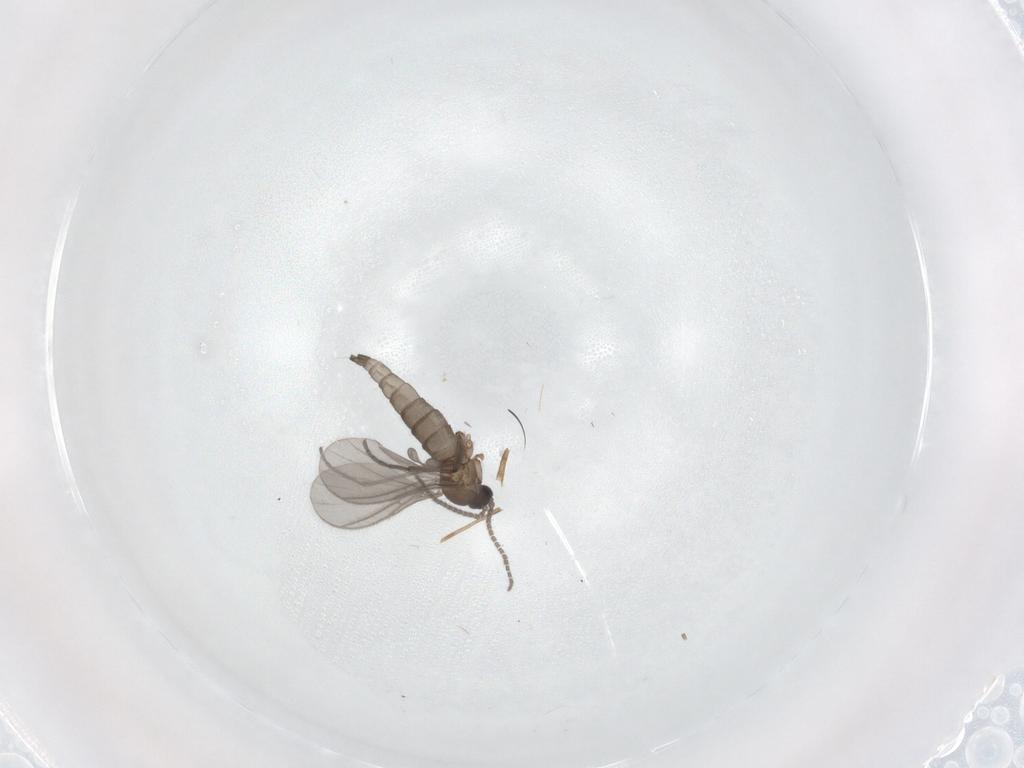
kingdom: Animalia
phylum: Arthropoda
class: Insecta
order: Diptera
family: Sciaridae
